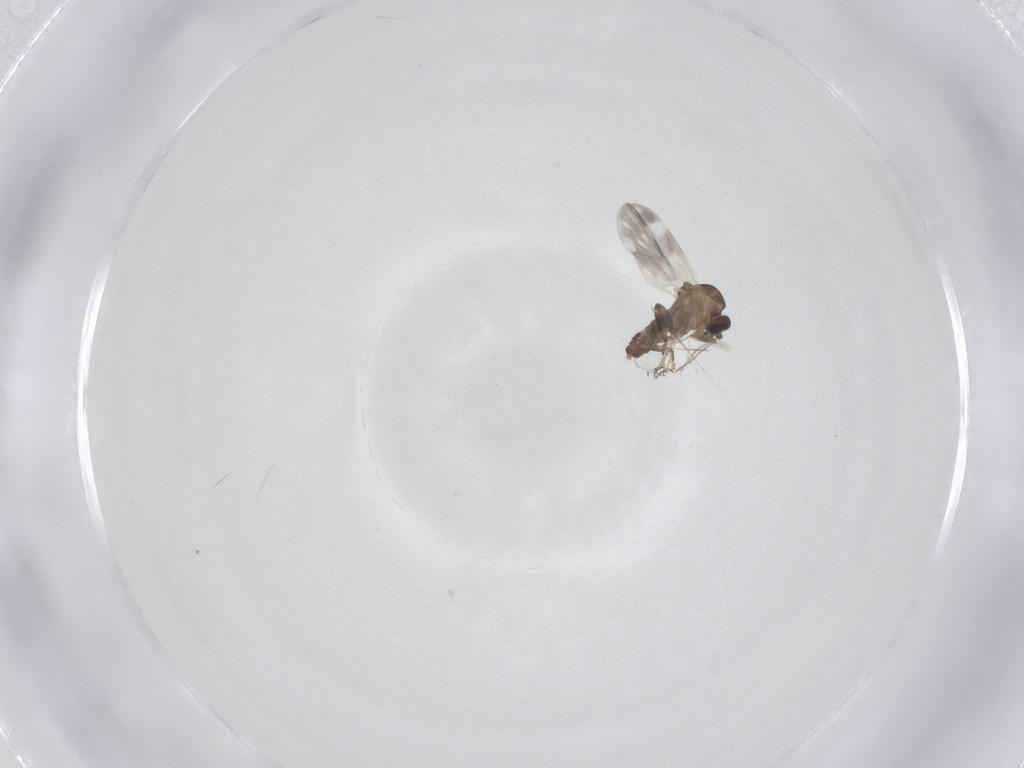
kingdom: Animalia
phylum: Arthropoda
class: Insecta
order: Diptera
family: Ceratopogonidae
